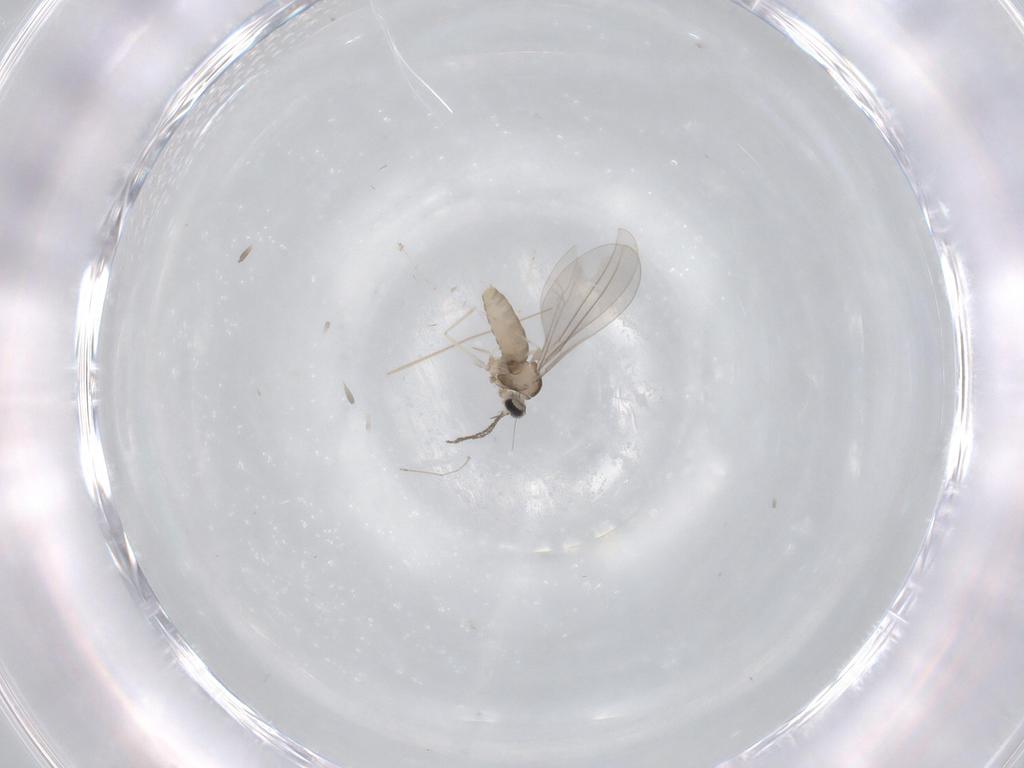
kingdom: Animalia
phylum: Arthropoda
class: Insecta
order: Diptera
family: Cecidomyiidae
